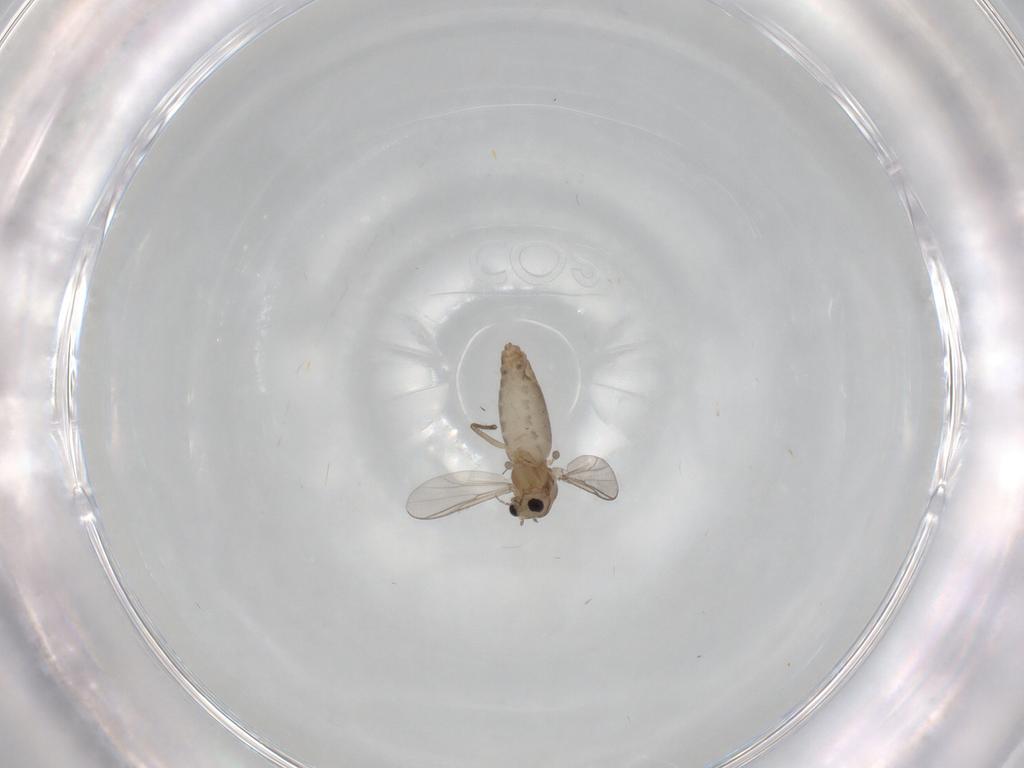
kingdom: Animalia
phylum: Arthropoda
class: Insecta
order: Diptera
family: Chironomidae
